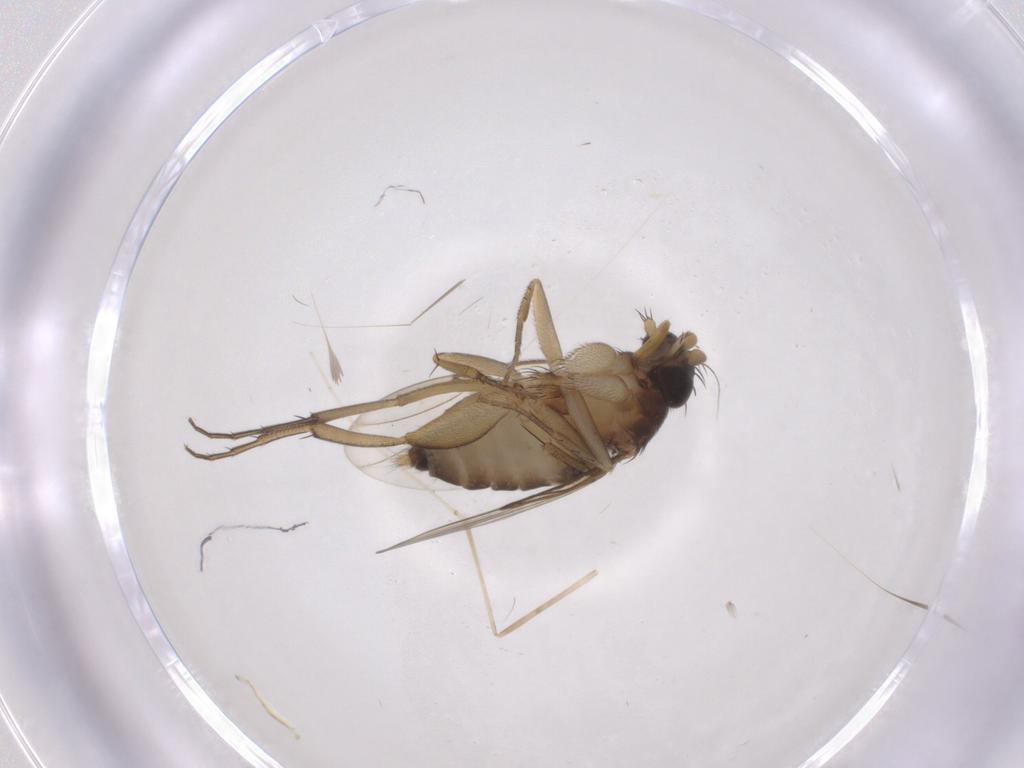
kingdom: Animalia
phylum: Arthropoda
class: Insecta
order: Diptera
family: Phoridae
